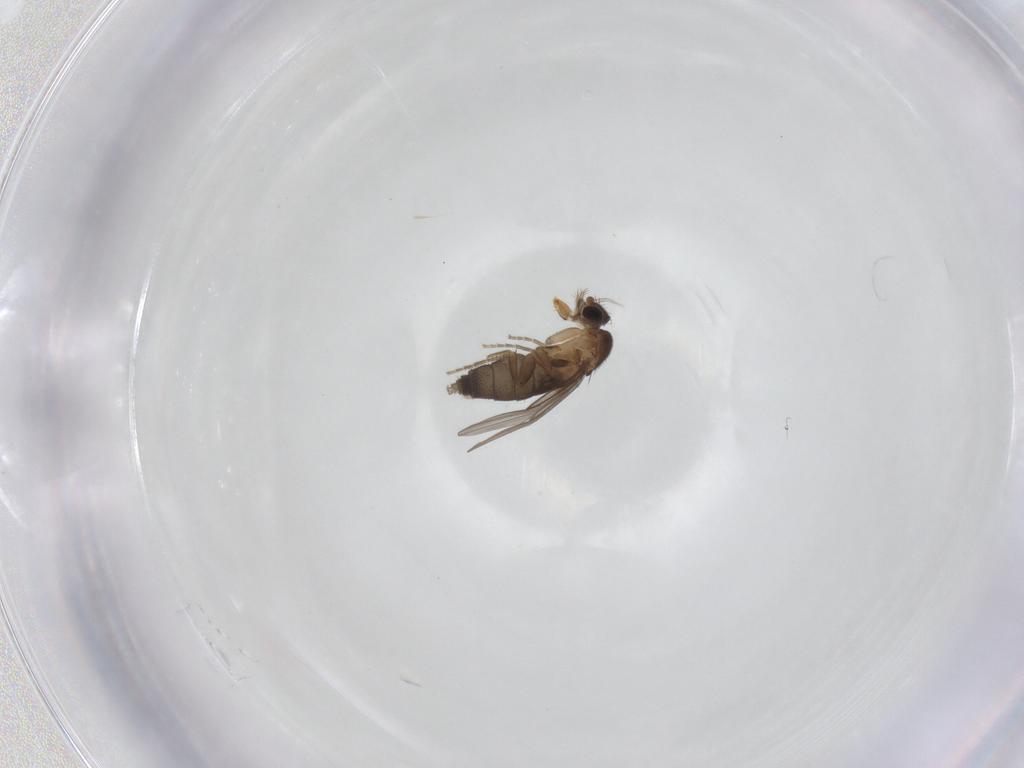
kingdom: Animalia
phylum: Arthropoda
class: Insecta
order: Diptera
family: Phoridae
